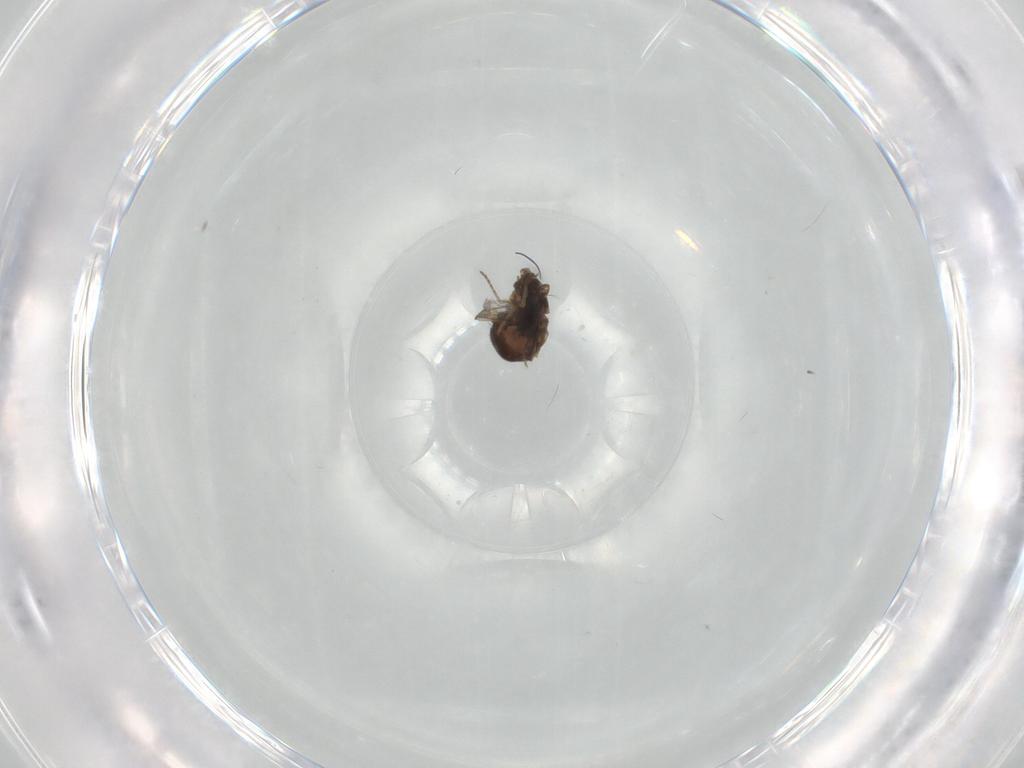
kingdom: Animalia
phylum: Arthropoda
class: Insecta
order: Diptera
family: Ceratopogonidae
